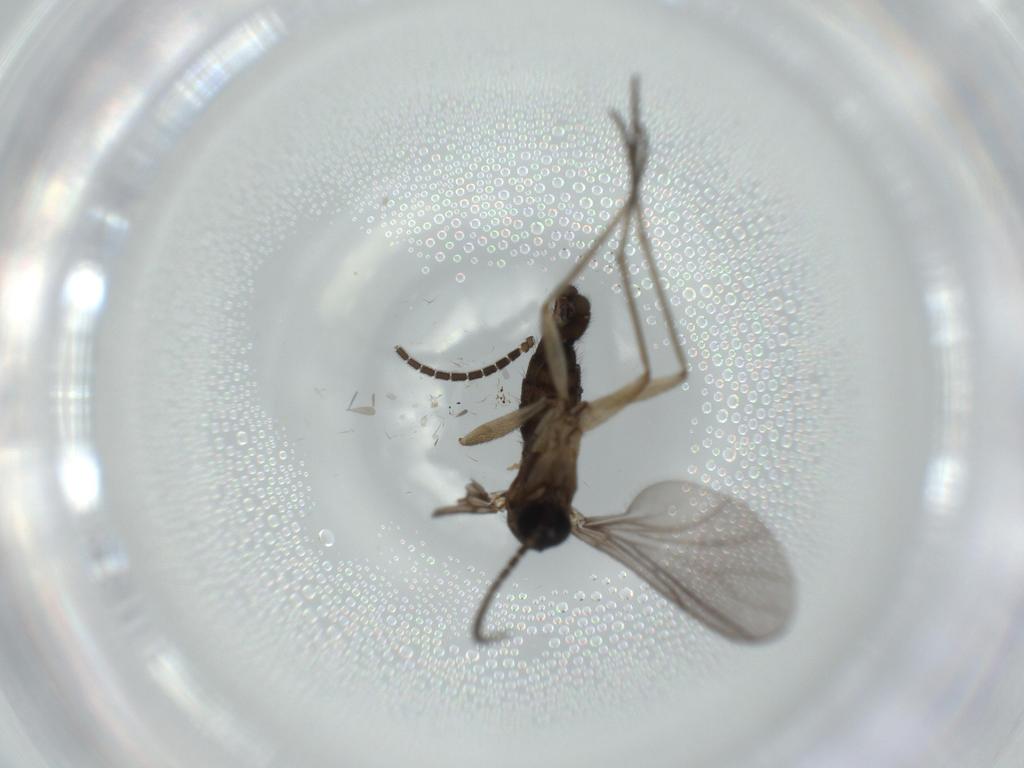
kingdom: Animalia
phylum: Arthropoda
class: Insecta
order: Diptera
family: Sciaridae
